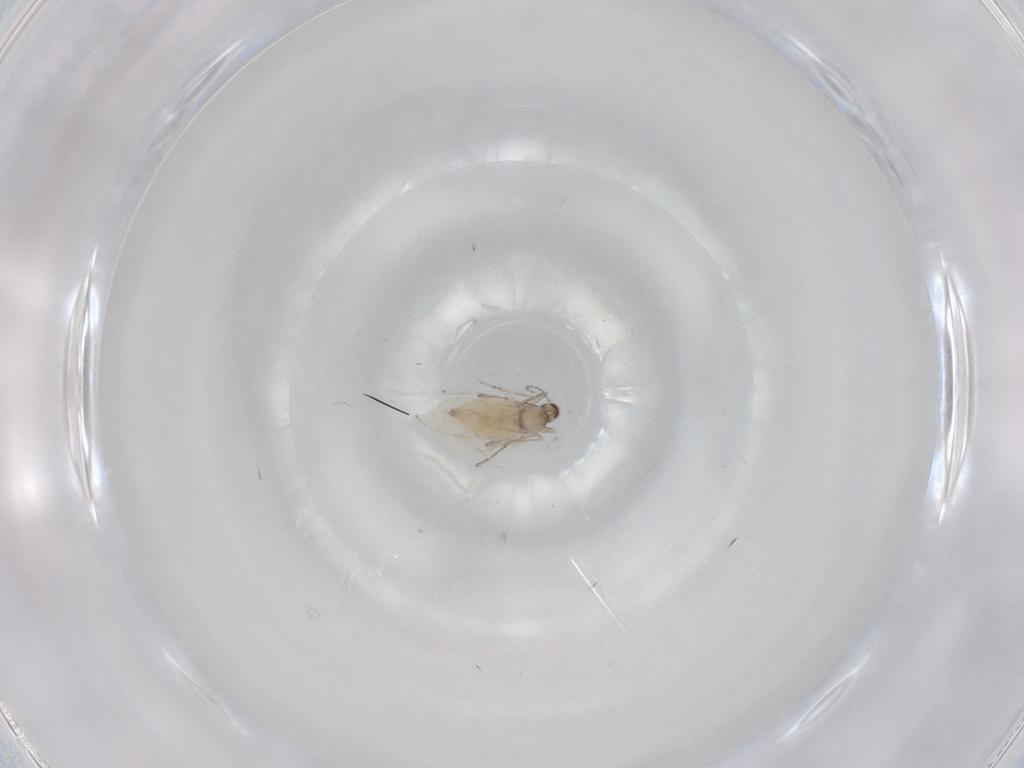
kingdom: Animalia
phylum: Arthropoda
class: Insecta
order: Diptera
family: Cecidomyiidae
